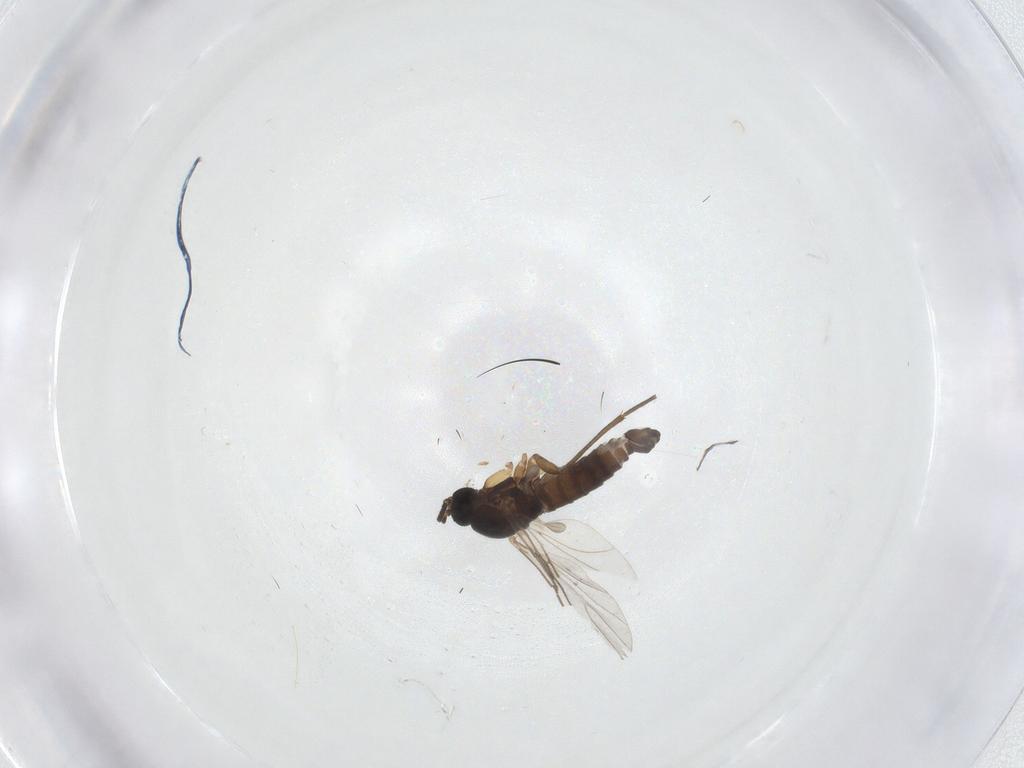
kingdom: Animalia
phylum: Arthropoda
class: Insecta
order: Diptera
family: Sciaridae
